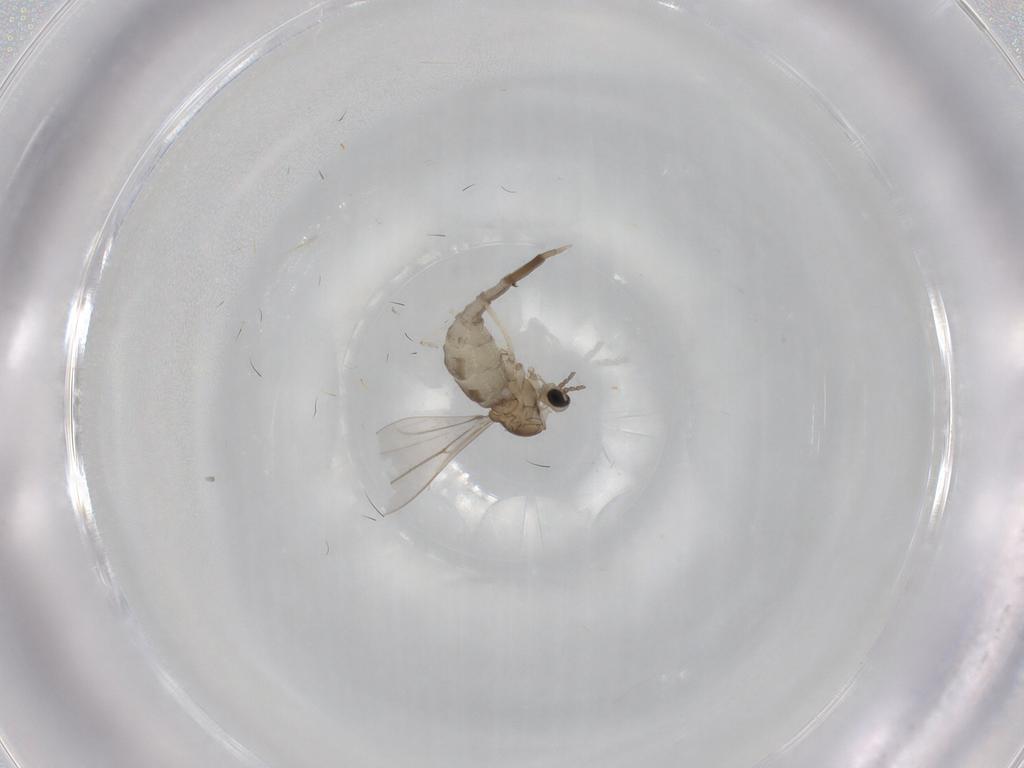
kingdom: Animalia
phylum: Arthropoda
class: Insecta
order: Diptera
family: Cecidomyiidae
